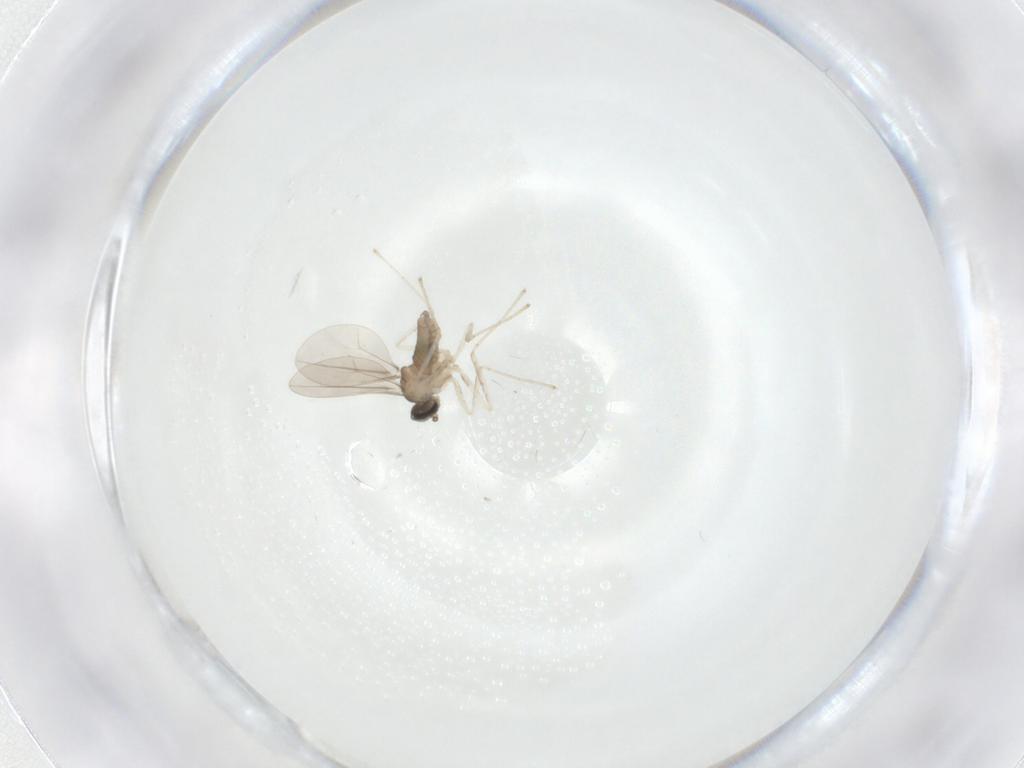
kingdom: Animalia
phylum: Arthropoda
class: Insecta
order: Diptera
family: Cecidomyiidae
